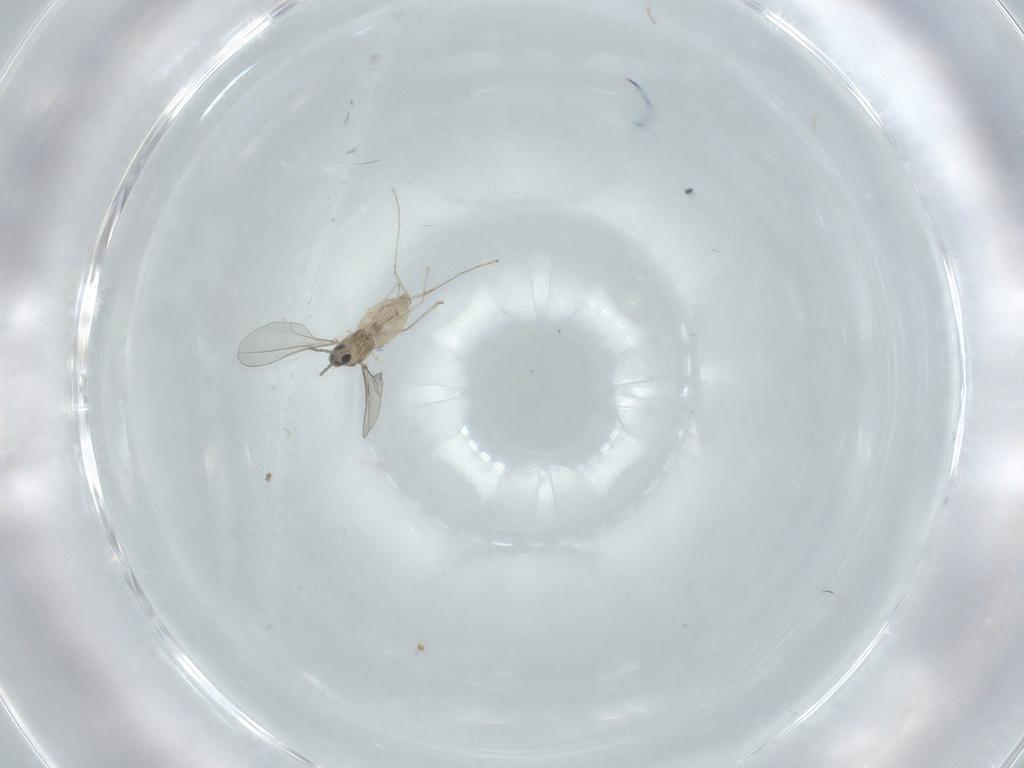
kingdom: Animalia
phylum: Arthropoda
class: Insecta
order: Diptera
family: Cecidomyiidae
